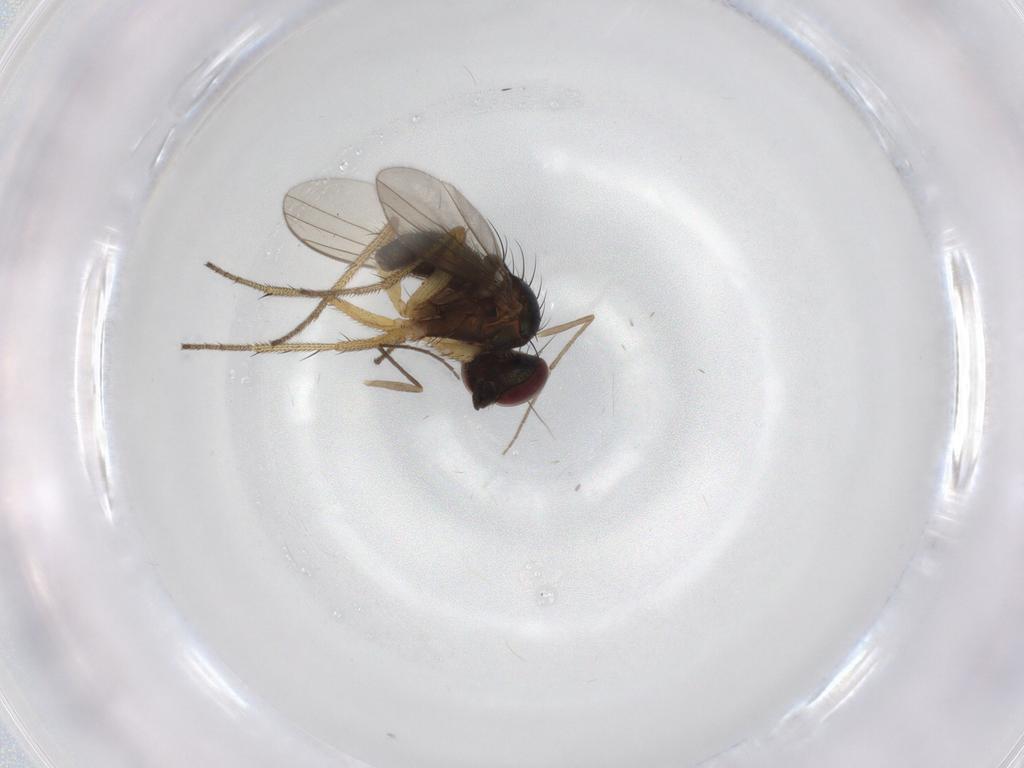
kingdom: Animalia
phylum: Arthropoda
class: Insecta
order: Diptera
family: Chironomidae
